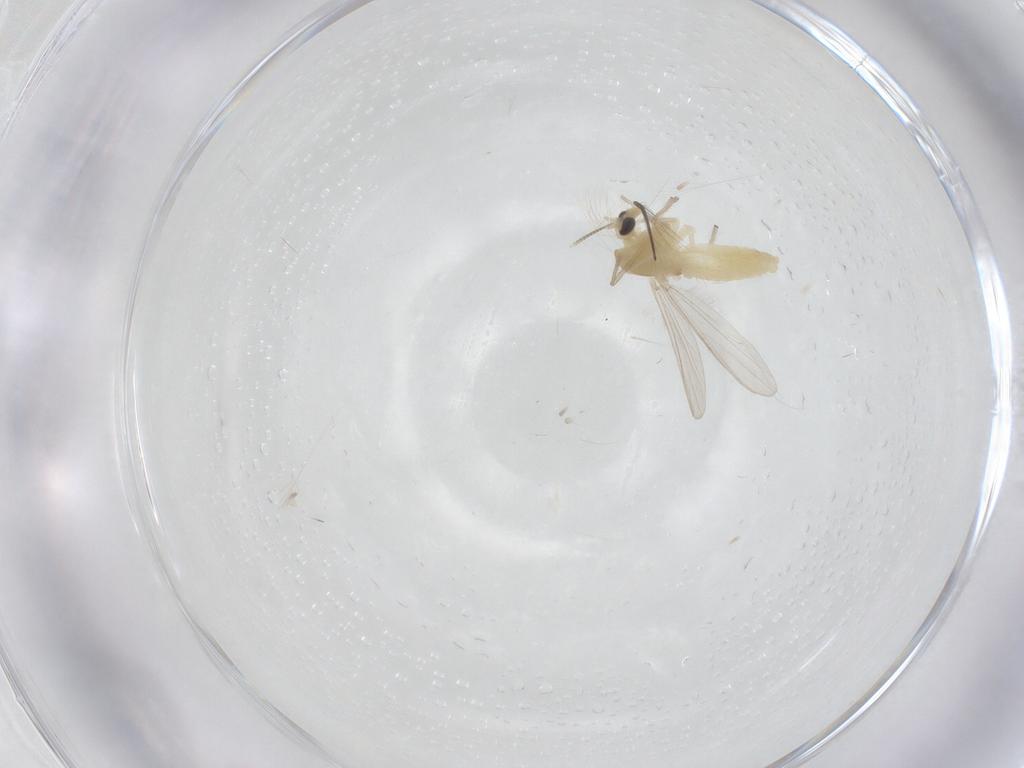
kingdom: Animalia
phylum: Arthropoda
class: Insecta
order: Diptera
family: Chironomidae
